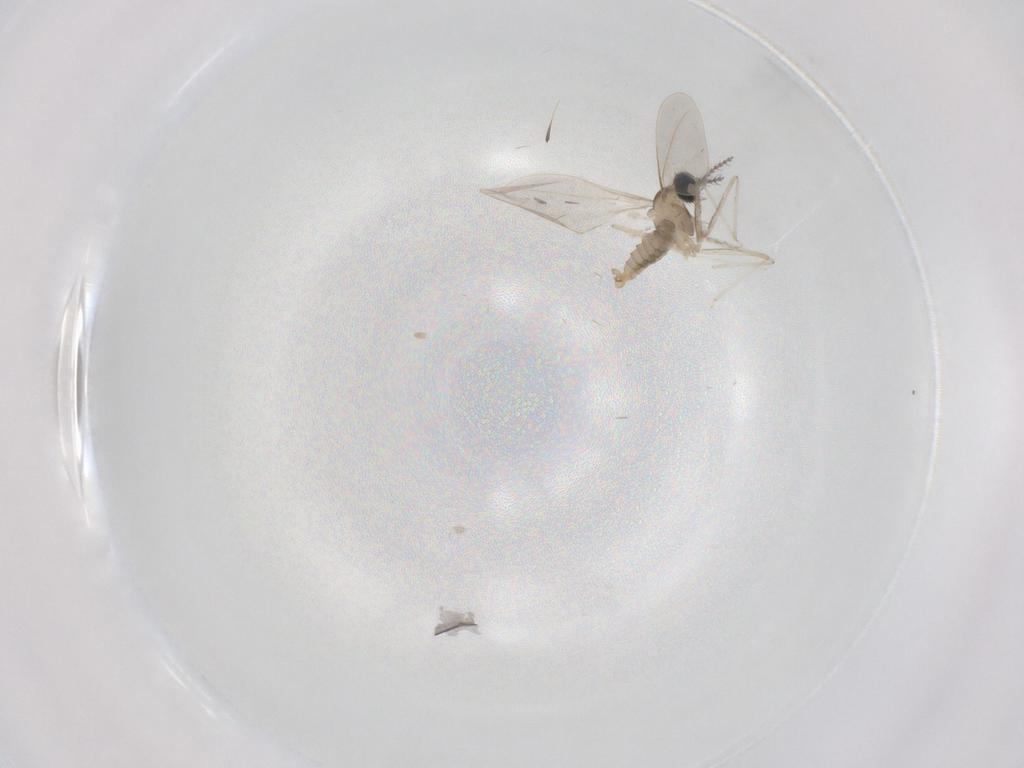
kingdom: Animalia
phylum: Arthropoda
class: Insecta
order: Diptera
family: Cecidomyiidae
